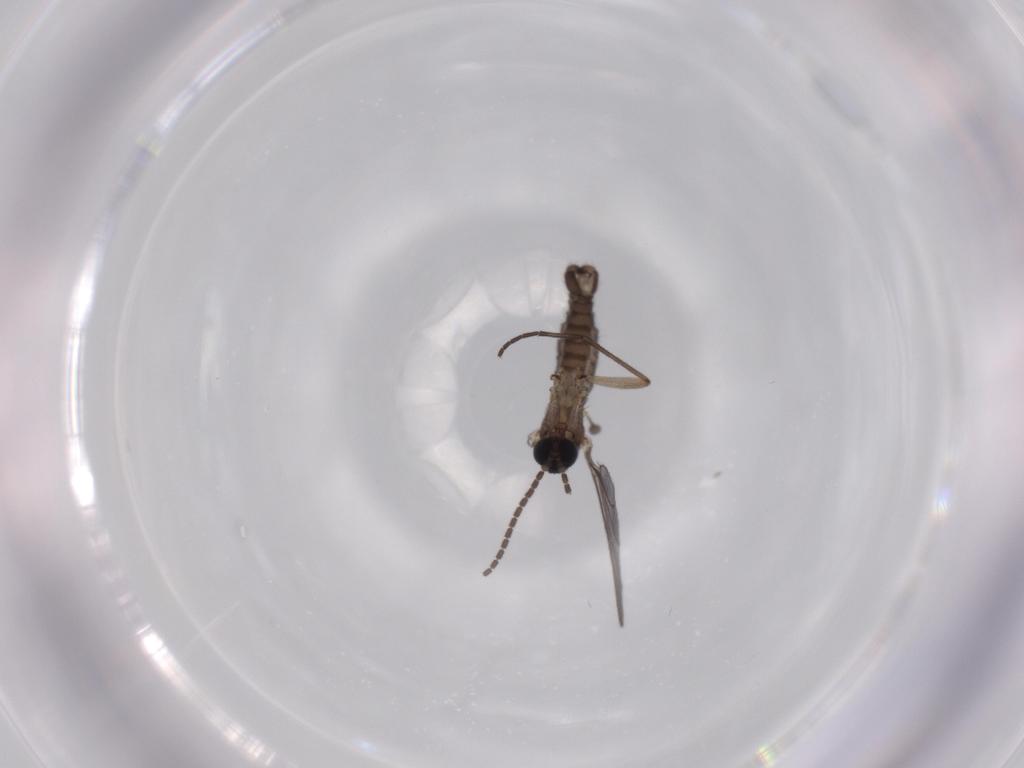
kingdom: Animalia
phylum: Arthropoda
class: Insecta
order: Diptera
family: Sciaridae
